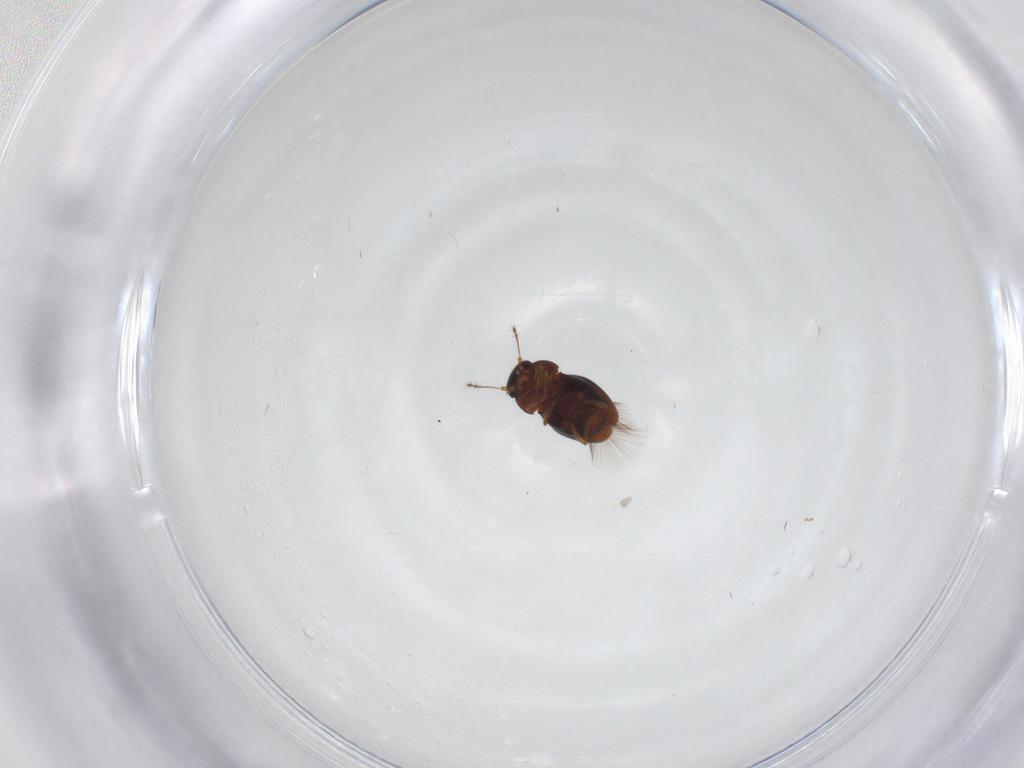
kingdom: Animalia
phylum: Arthropoda
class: Insecta
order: Coleoptera
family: Ptiliidae
